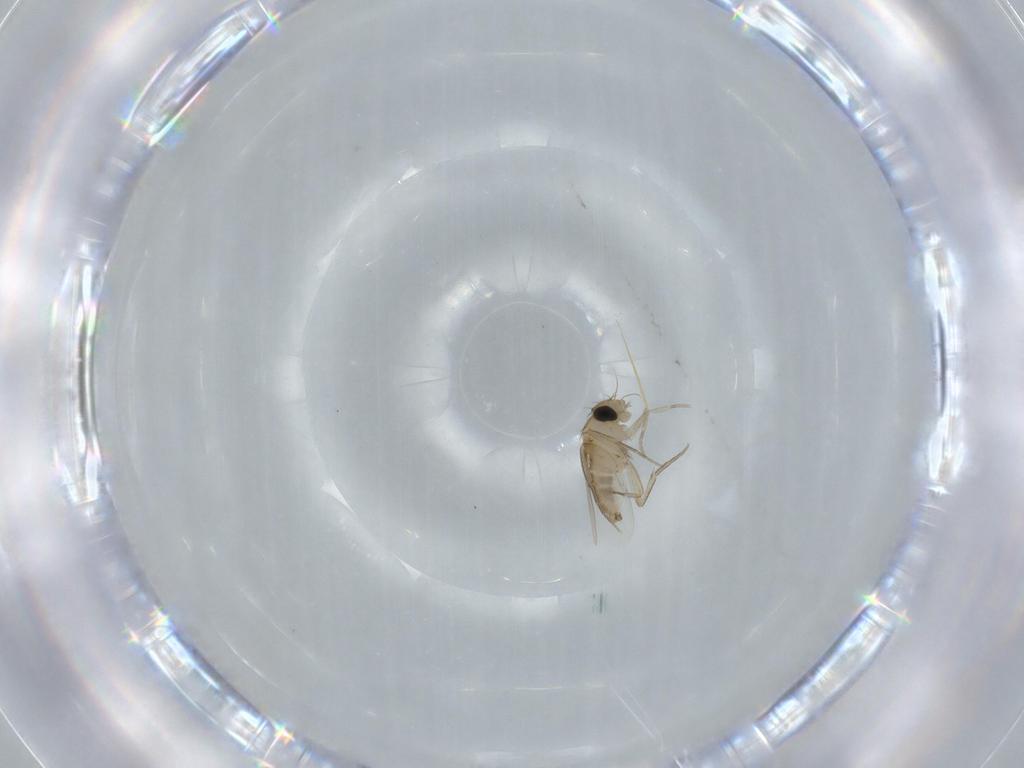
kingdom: Animalia
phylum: Arthropoda
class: Insecta
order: Diptera
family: Phoridae
